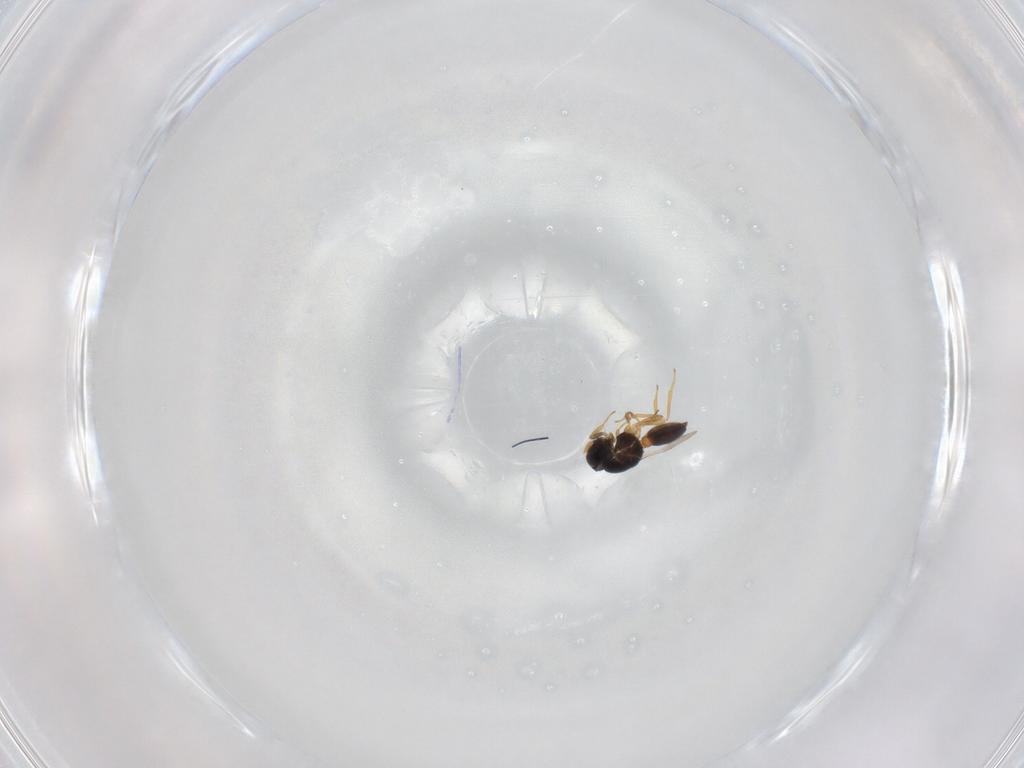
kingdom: Animalia
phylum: Arthropoda
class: Insecta
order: Hymenoptera
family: Scelionidae
